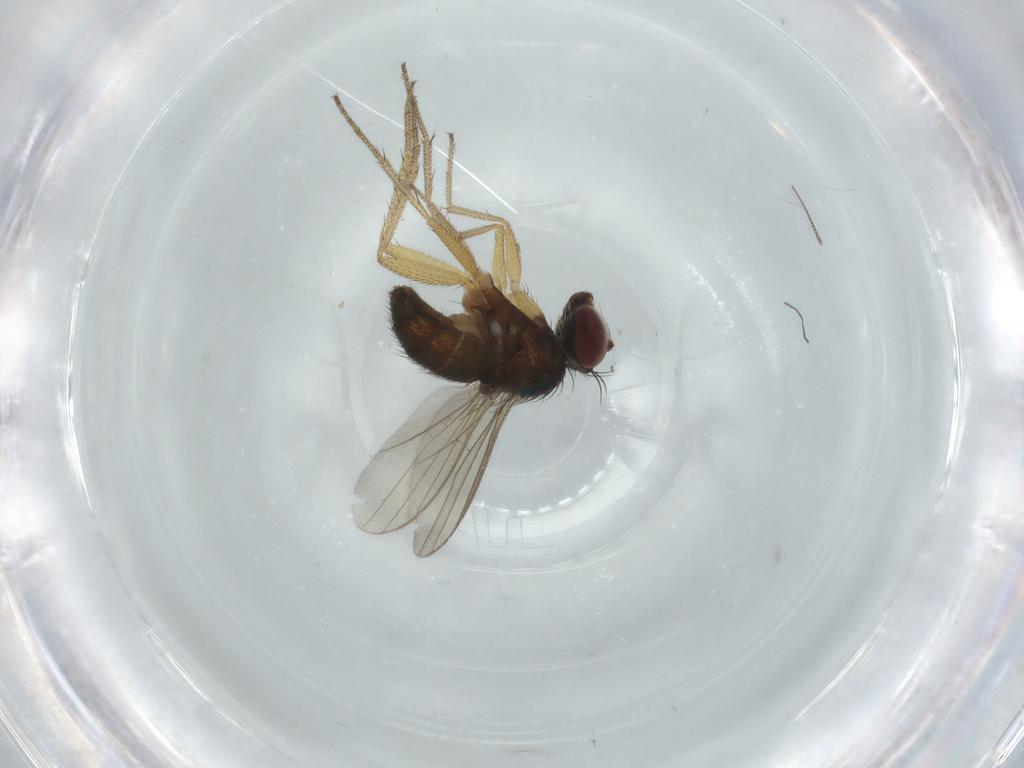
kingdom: Animalia
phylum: Arthropoda
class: Insecta
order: Diptera
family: Dolichopodidae
